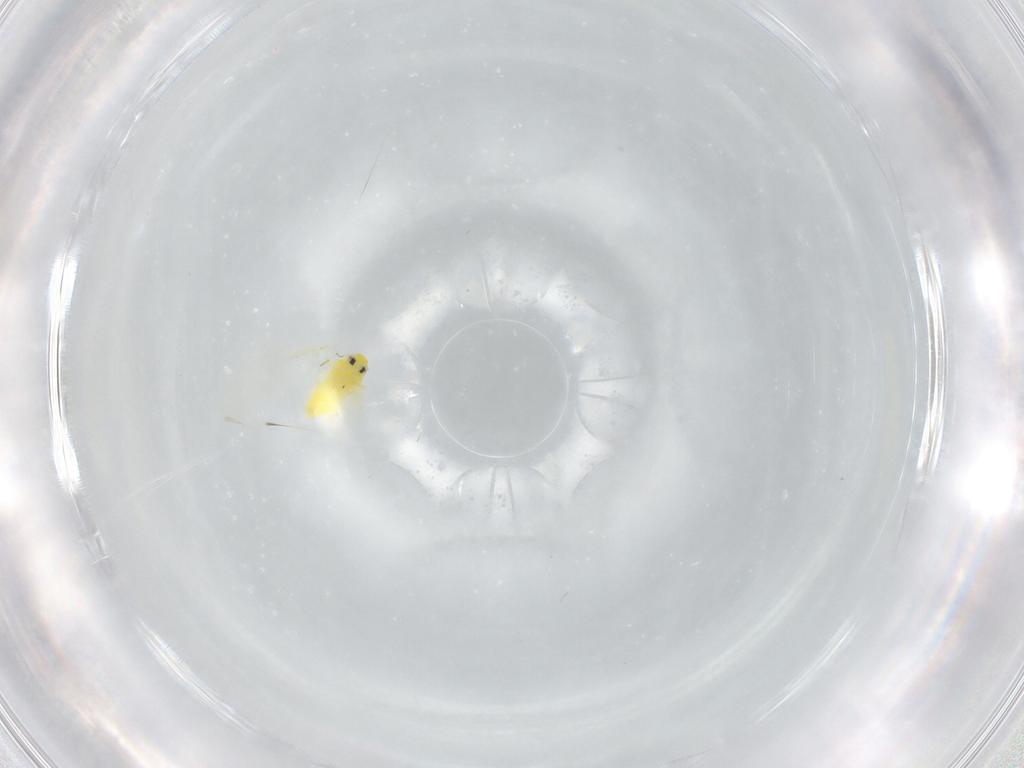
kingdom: Animalia
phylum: Arthropoda
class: Insecta
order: Hemiptera
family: Aleyrodidae
